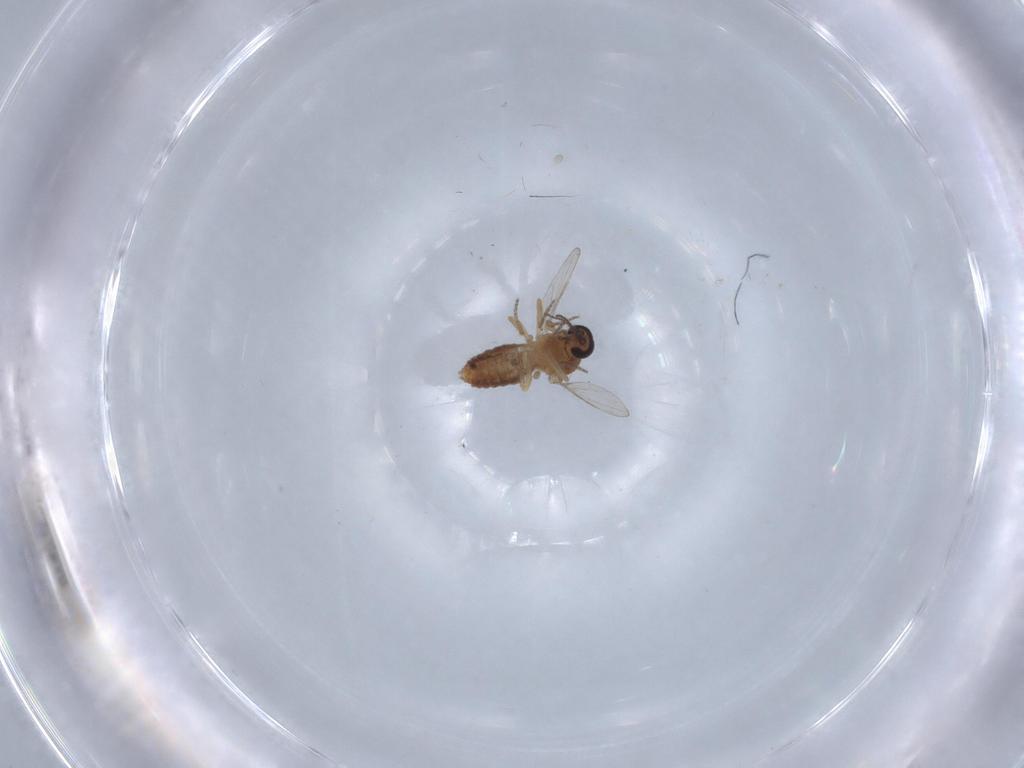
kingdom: Animalia
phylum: Arthropoda
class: Insecta
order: Diptera
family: Ceratopogonidae
